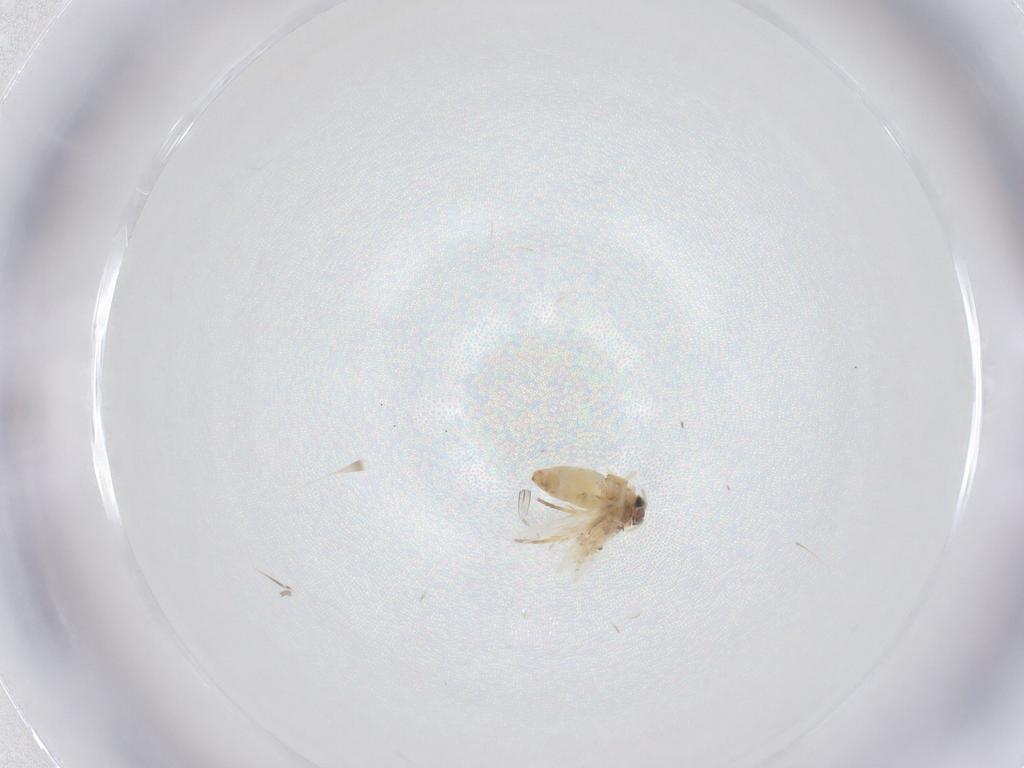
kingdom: Animalia
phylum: Arthropoda
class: Insecta
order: Lepidoptera
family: Crambidae
